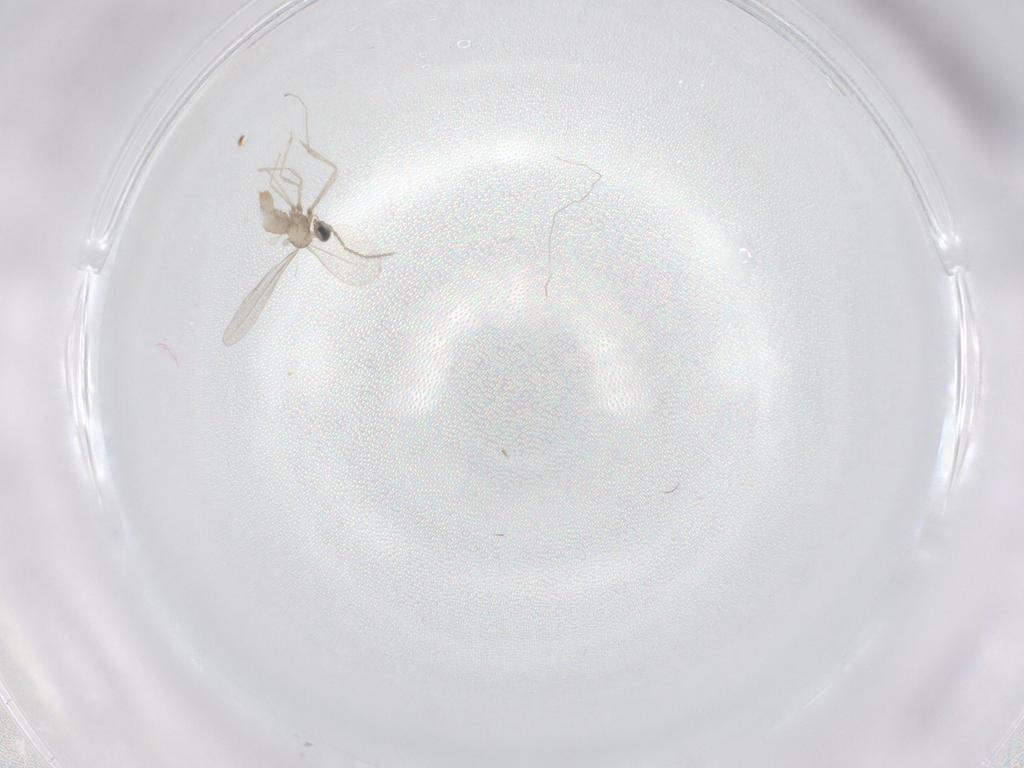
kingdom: Animalia
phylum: Arthropoda
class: Insecta
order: Diptera
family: Cecidomyiidae
